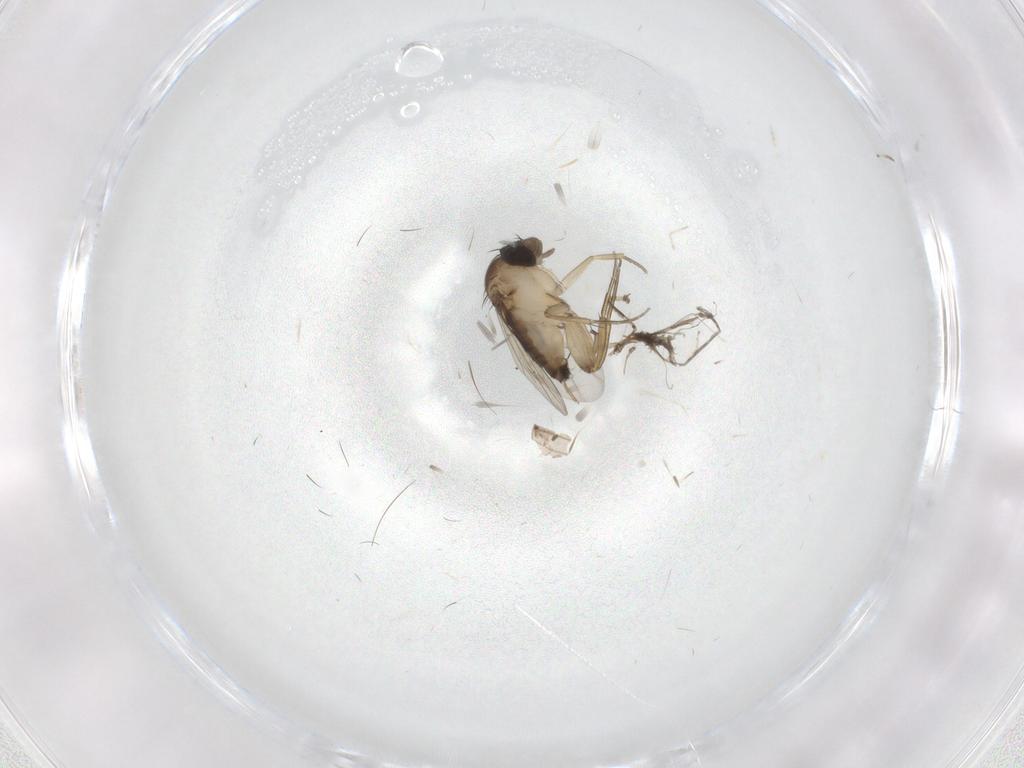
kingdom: Animalia
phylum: Arthropoda
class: Insecta
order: Diptera
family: Phoridae
